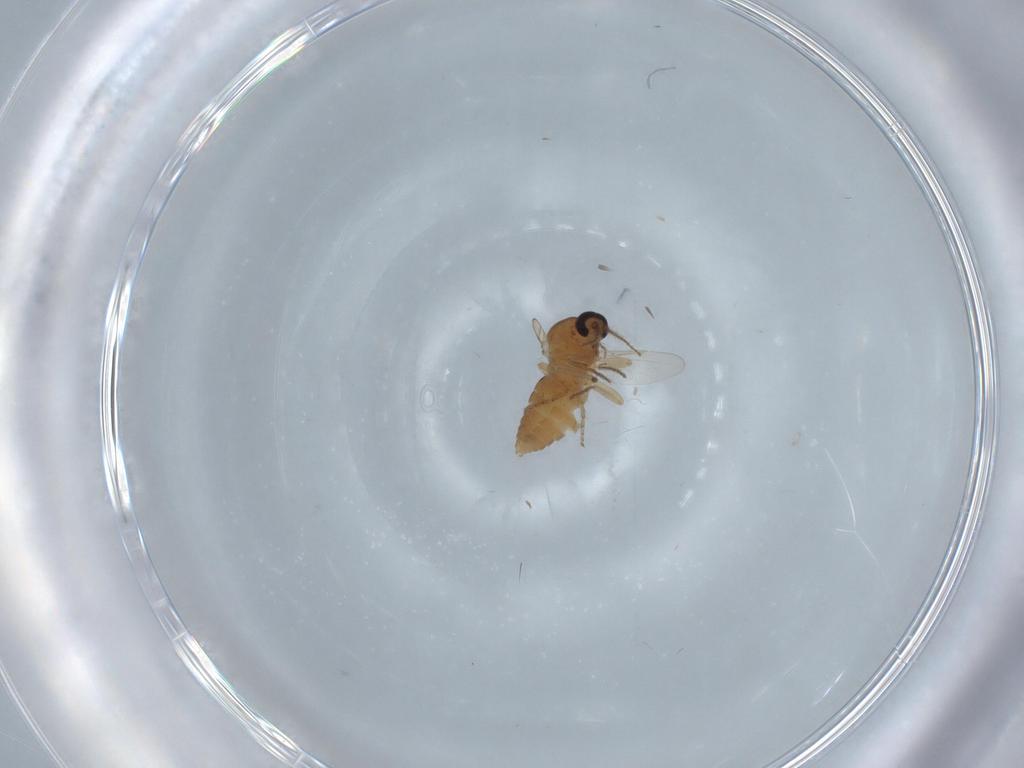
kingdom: Animalia
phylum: Arthropoda
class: Insecta
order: Diptera
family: Ceratopogonidae
